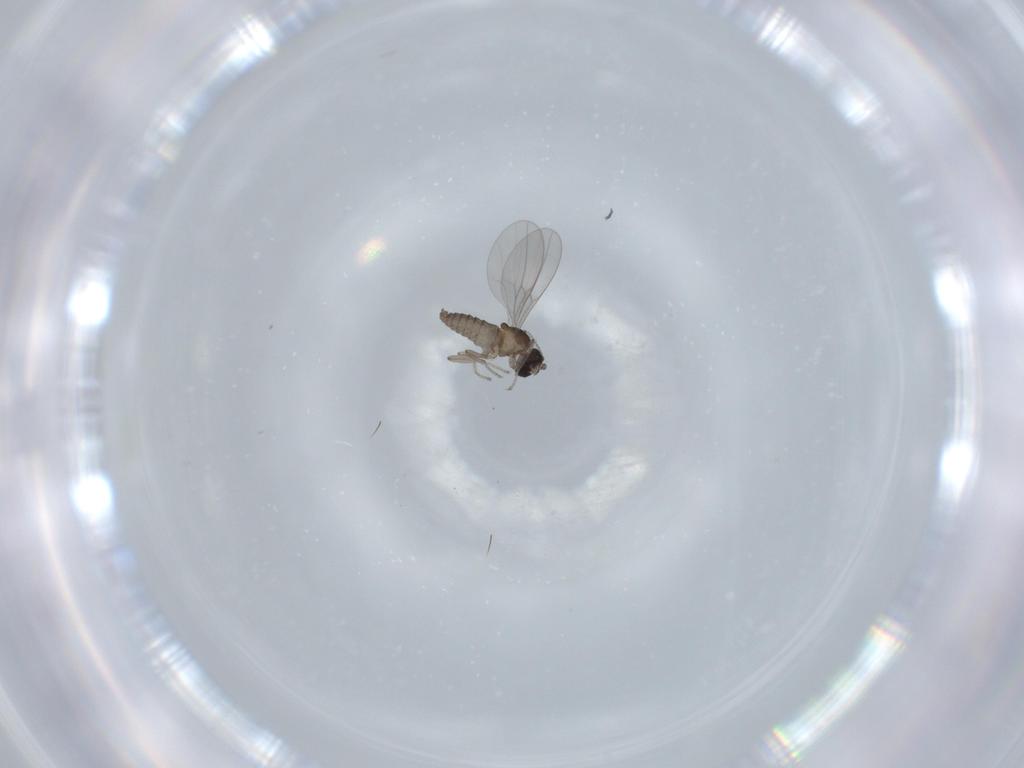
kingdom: Animalia
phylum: Arthropoda
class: Insecta
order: Diptera
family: Cecidomyiidae
